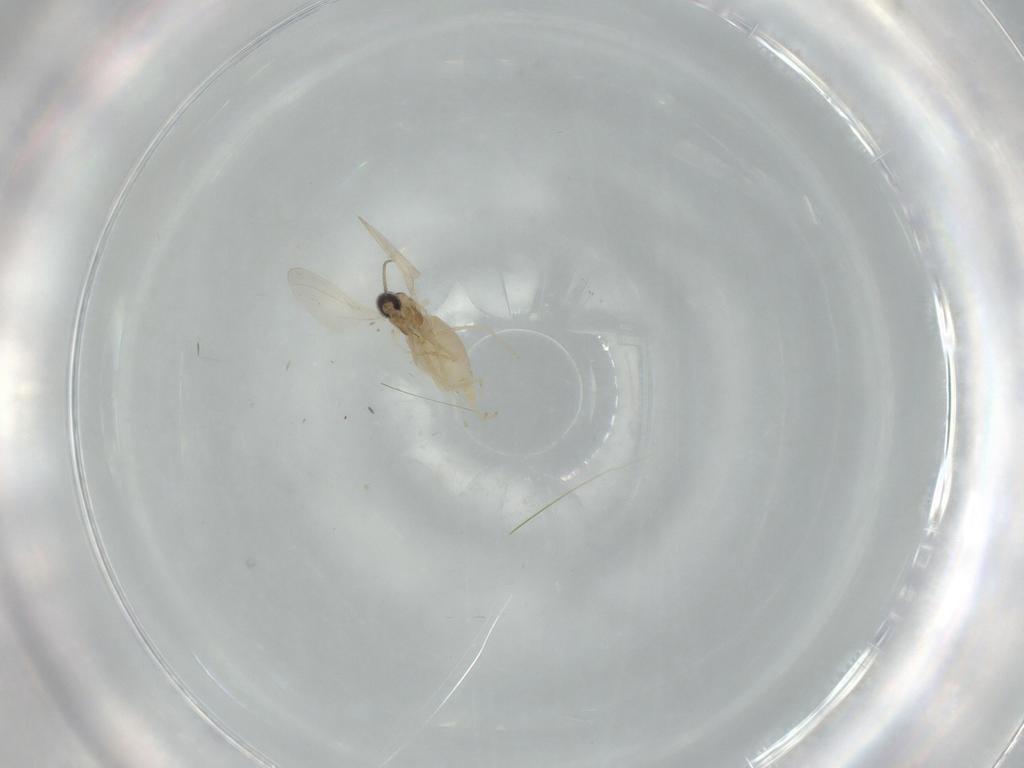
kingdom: Animalia
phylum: Arthropoda
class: Insecta
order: Diptera
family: Cecidomyiidae
